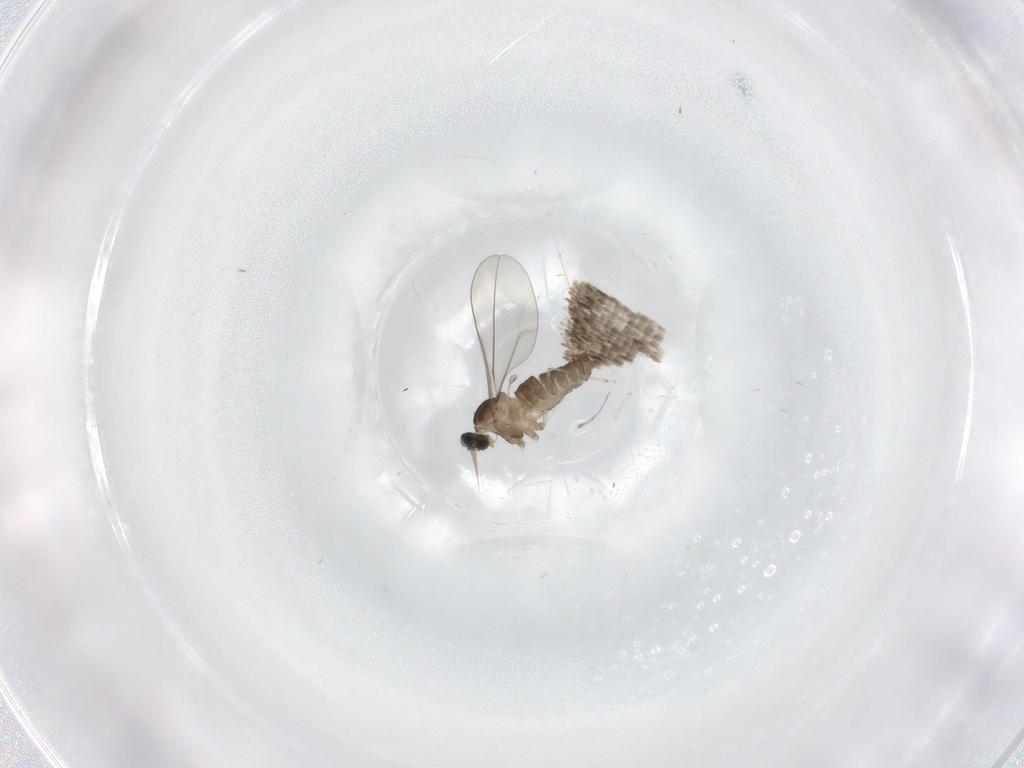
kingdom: Animalia
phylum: Arthropoda
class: Insecta
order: Diptera
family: Cecidomyiidae
